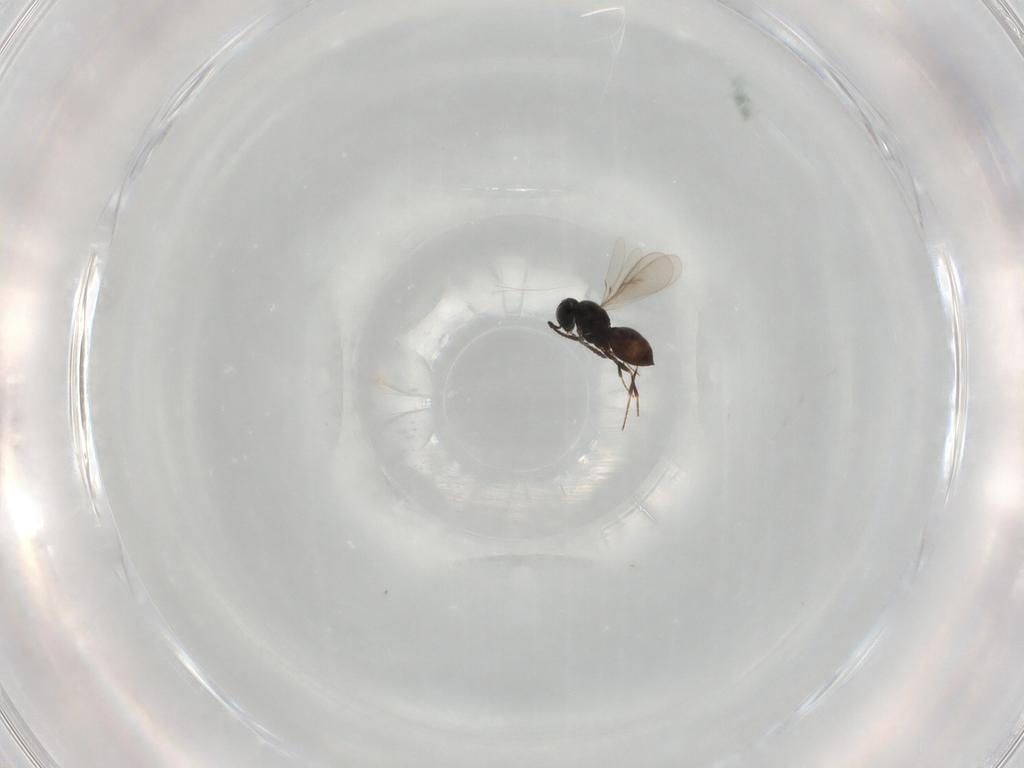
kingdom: Animalia
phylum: Arthropoda
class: Insecta
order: Hymenoptera
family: Scelionidae
